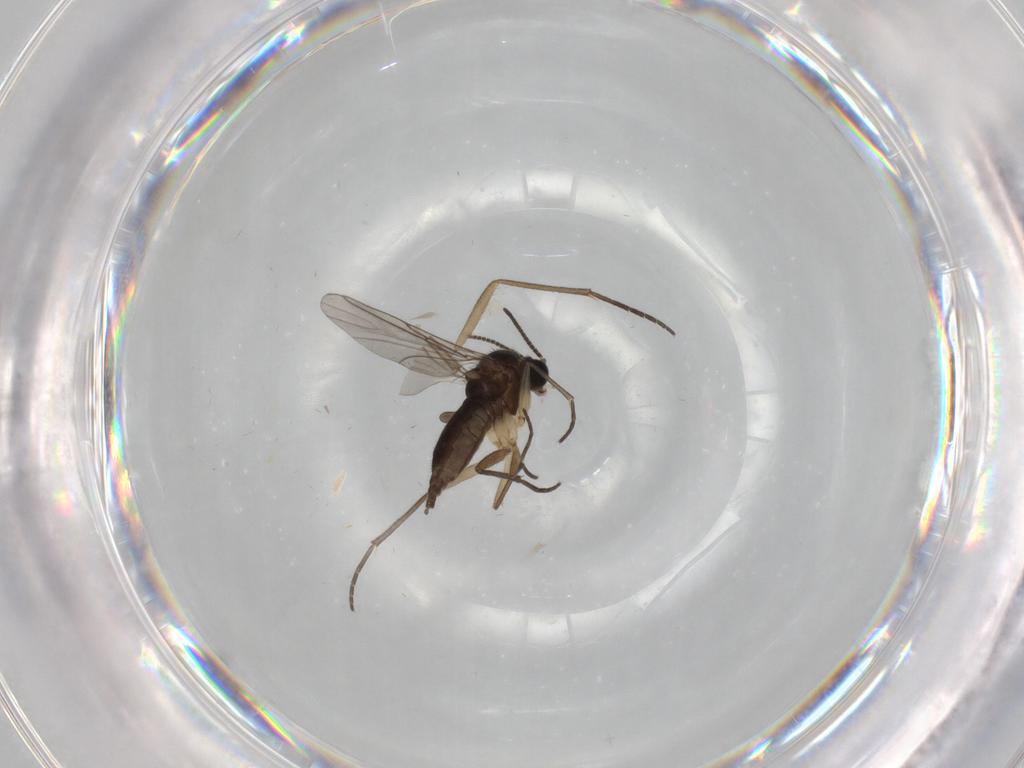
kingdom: Animalia
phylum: Arthropoda
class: Insecta
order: Diptera
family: Sciaridae
